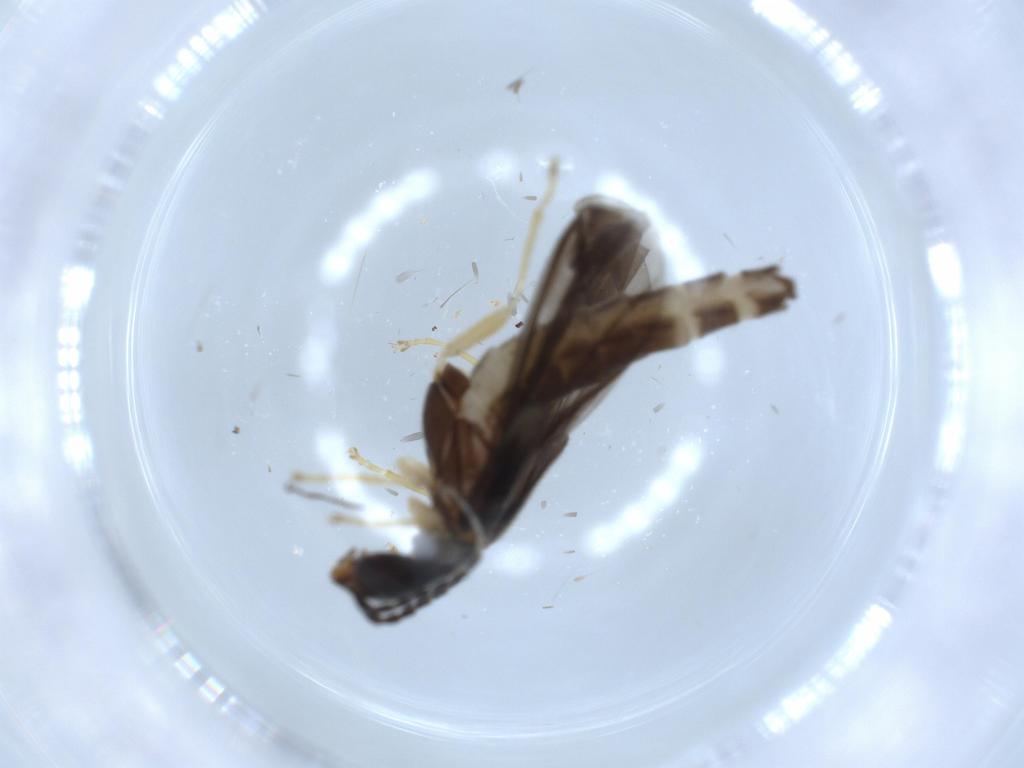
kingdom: Animalia
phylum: Arthropoda
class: Insecta
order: Coleoptera
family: Cantharidae
